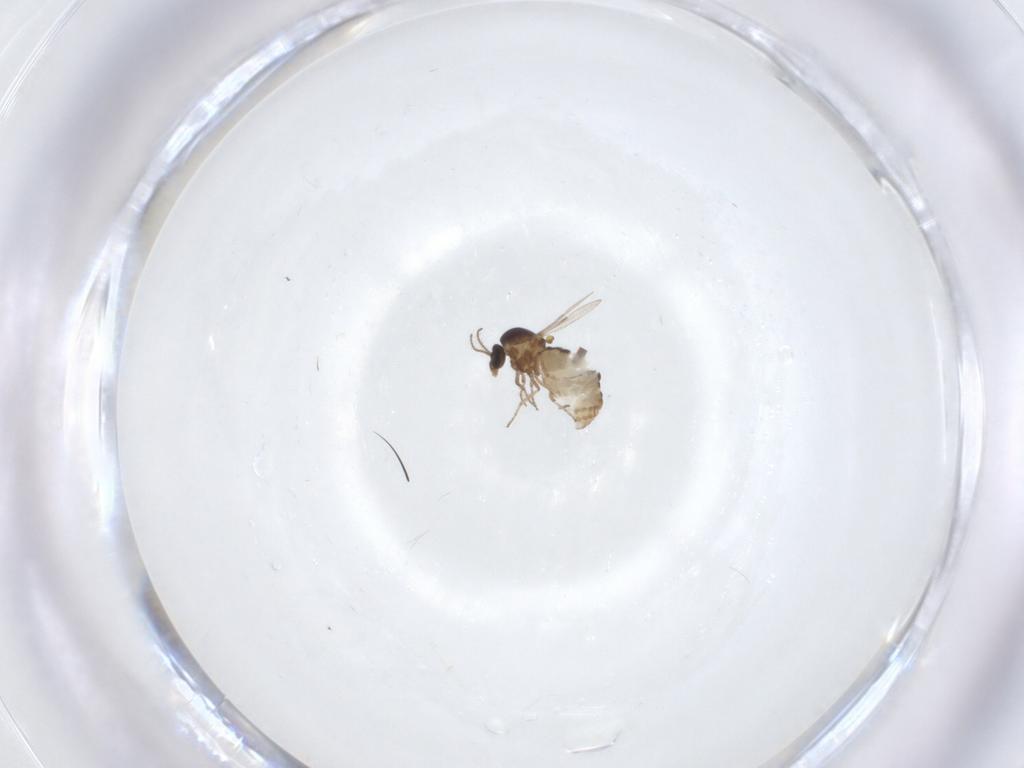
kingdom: Animalia
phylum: Arthropoda
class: Insecta
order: Diptera
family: Ceratopogonidae
